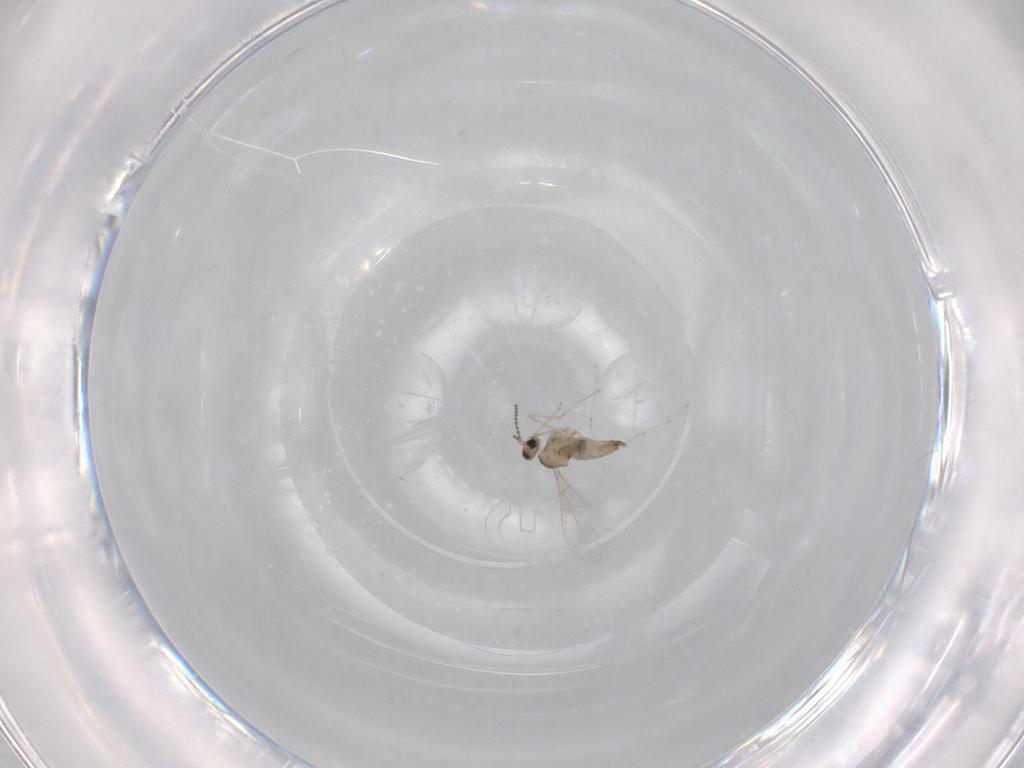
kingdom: Animalia
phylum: Arthropoda
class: Insecta
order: Diptera
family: Cecidomyiidae
